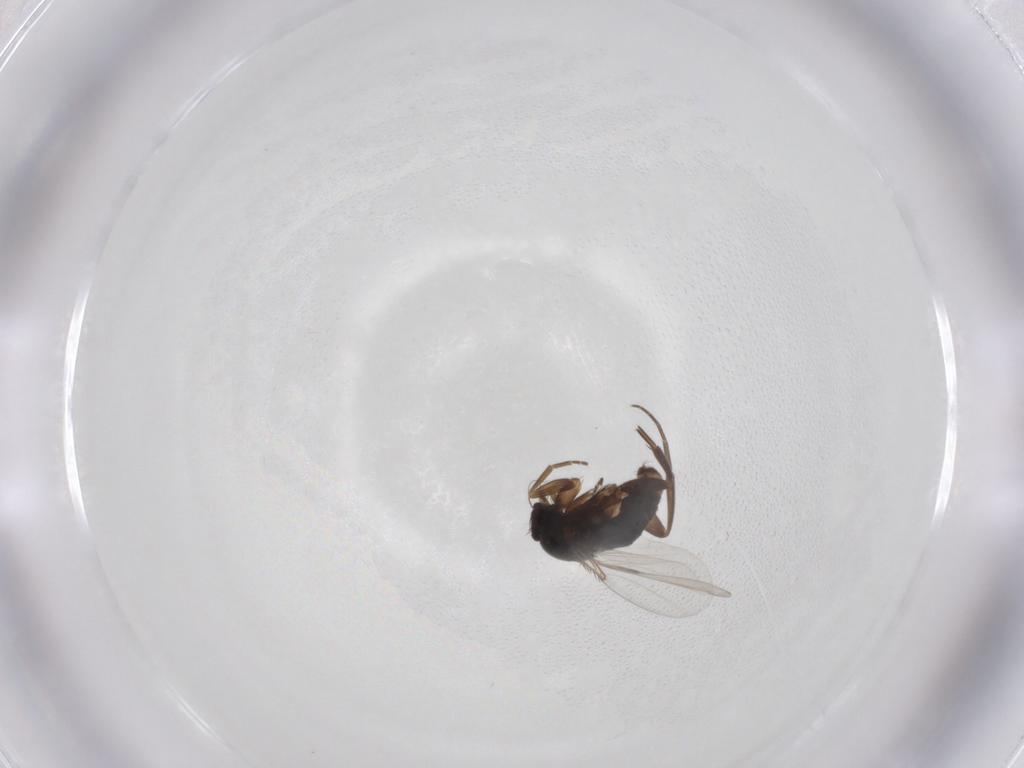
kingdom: Animalia
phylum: Arthropoda
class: Insecta
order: Diptera
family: Phoridae
